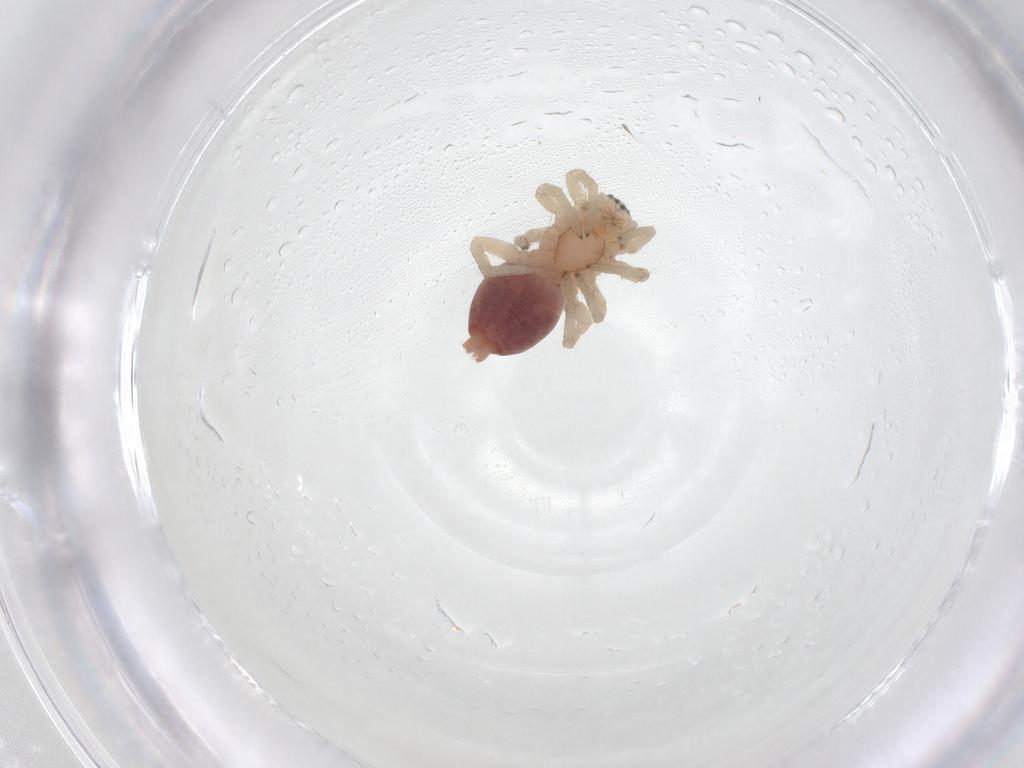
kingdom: Animalia
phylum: Arthropoda
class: Arachnida
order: Araneae
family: Clubionidae
